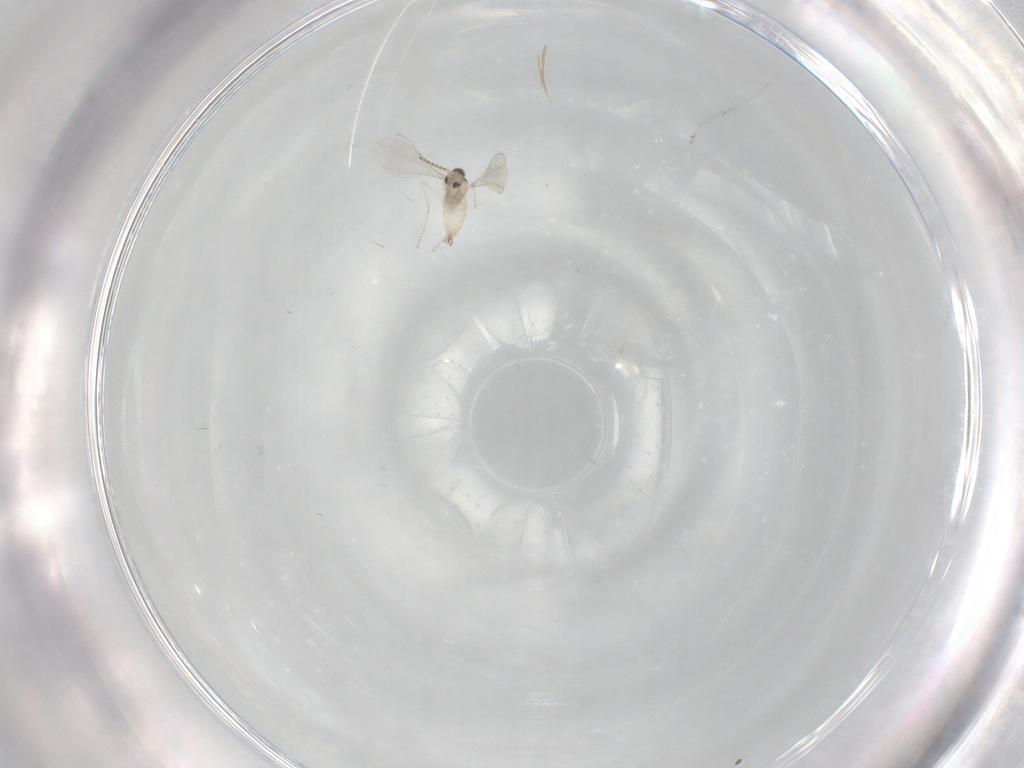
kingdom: Animalia
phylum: Arthropoda
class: Insecta
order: Diptera
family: Cecidomyiidae
